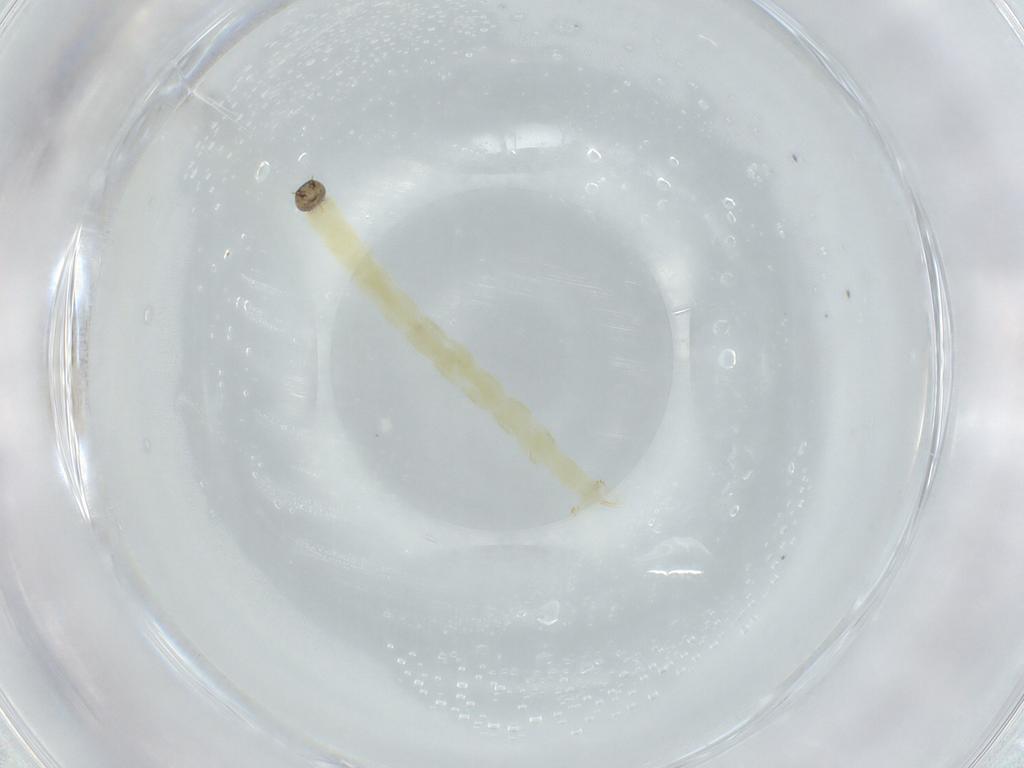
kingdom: Animalia
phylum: Arthropoda
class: Insecta
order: Diptera
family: Chironomidae
